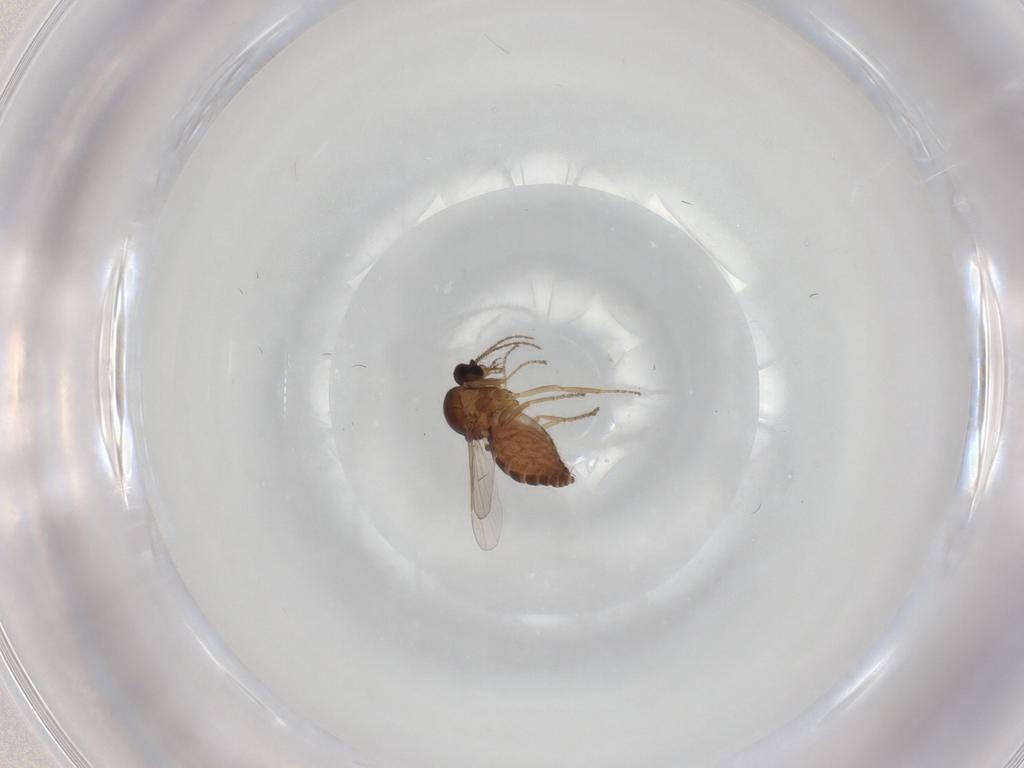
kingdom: Animalia
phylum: Arthropoda
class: Insecta
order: Diptera
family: Ceratopogonidae
